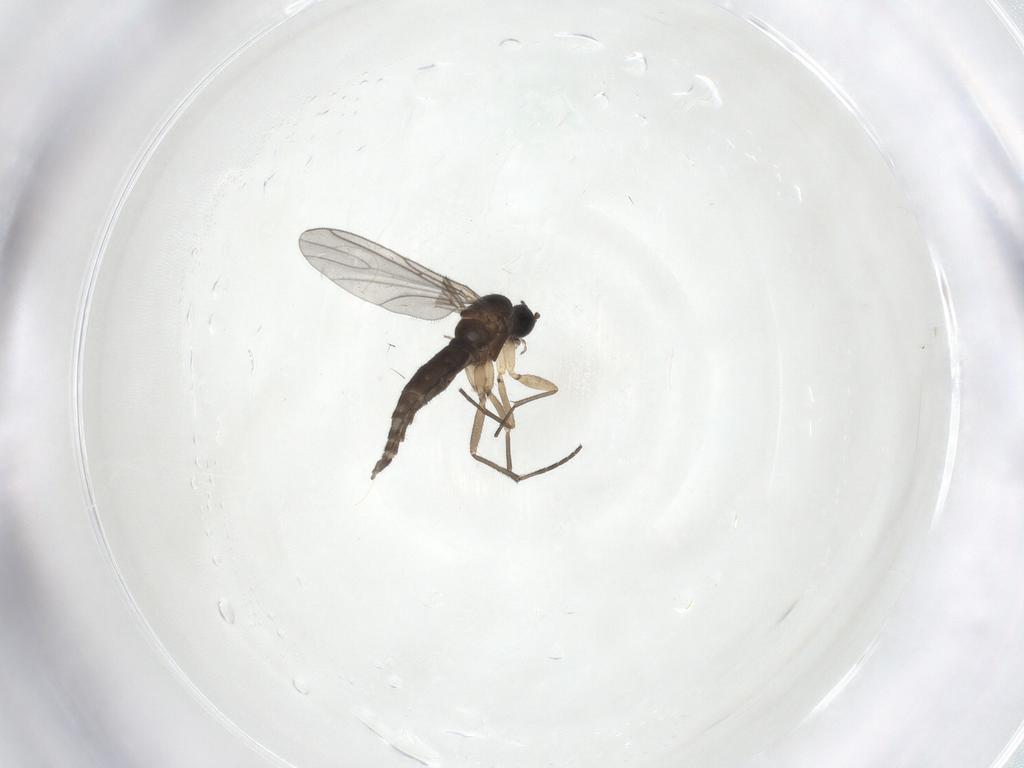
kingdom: Animalia
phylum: Arthropoda
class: Insecta
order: Diptera
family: Sciaridae
